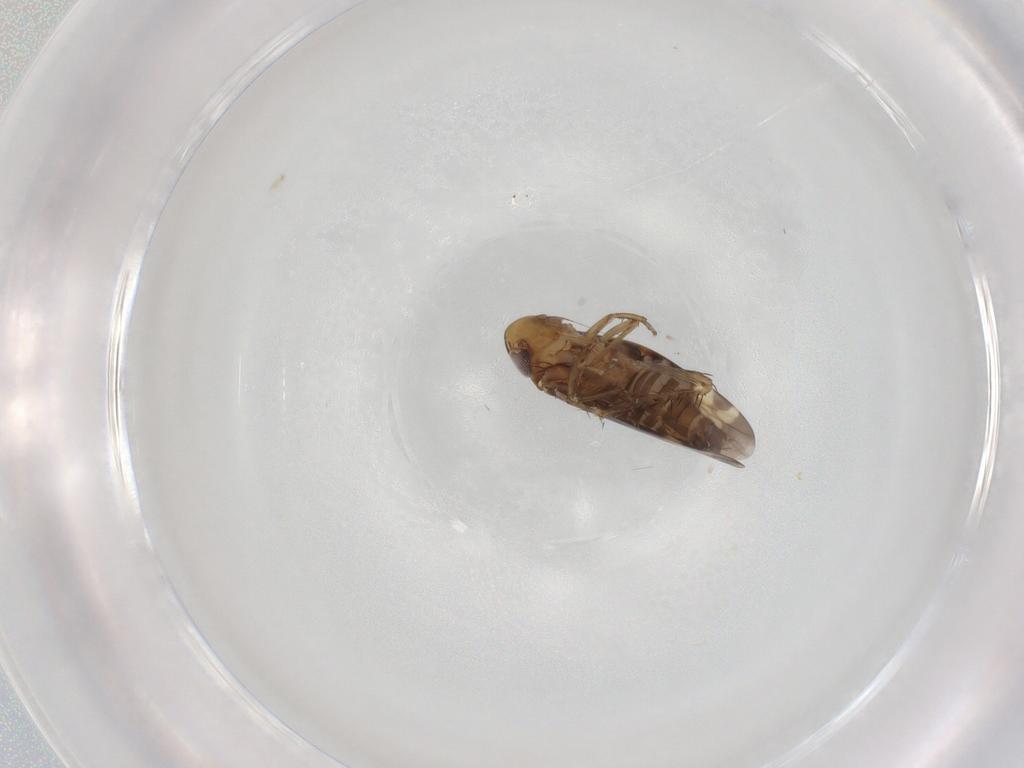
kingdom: Animalia
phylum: Arthropoda
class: Insecta
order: Hemiptera
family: Cicadellidae
